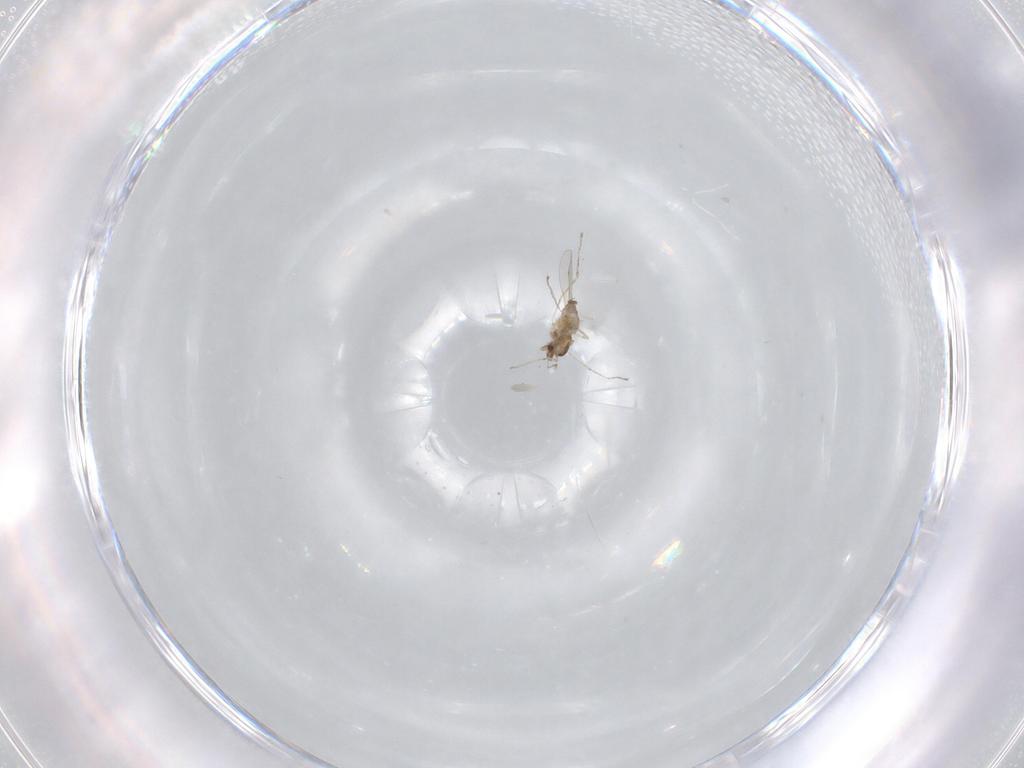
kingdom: Animalia
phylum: Arthropoda
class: Insecta
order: Diptera
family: Cecidomyiidae
